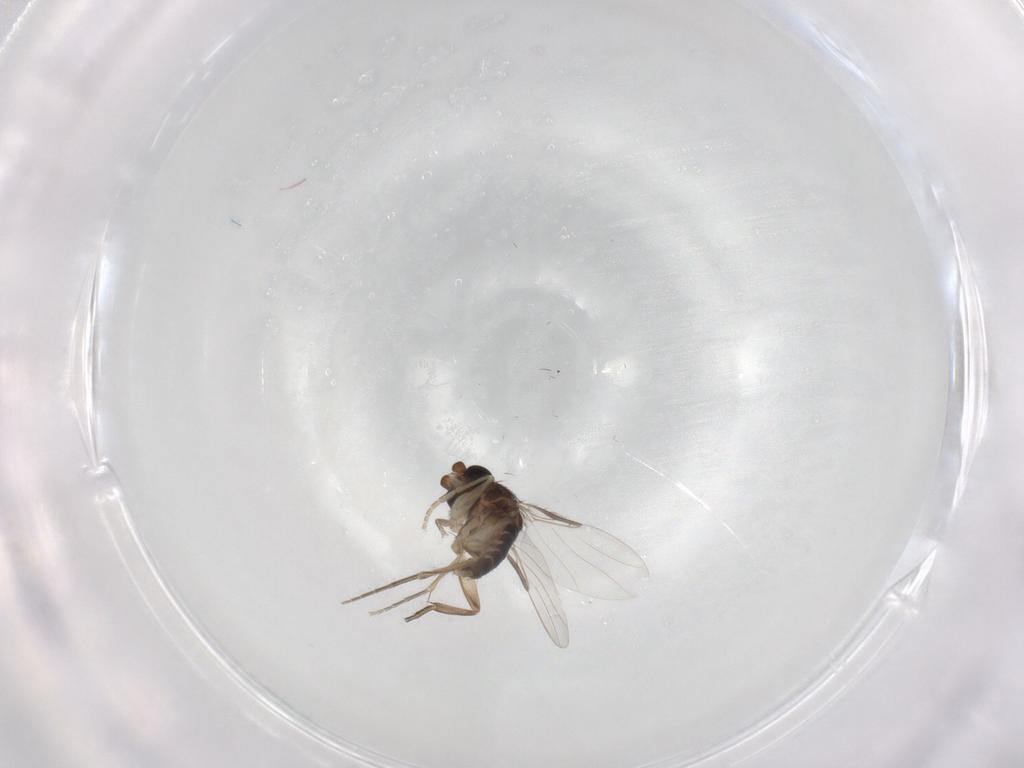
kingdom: Animalia
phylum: Arthropoda
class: Insecta
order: Diptera
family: Phoridae
